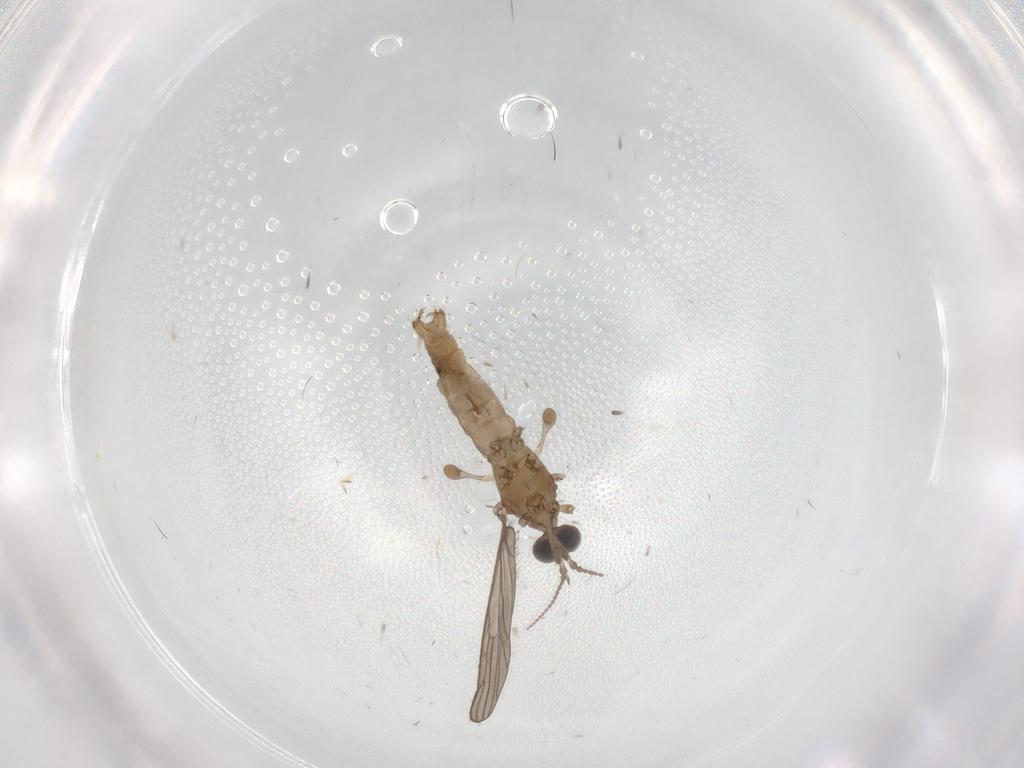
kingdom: Animalia
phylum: Arthropoda
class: Insecta
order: Diptera
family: Limoniidae
